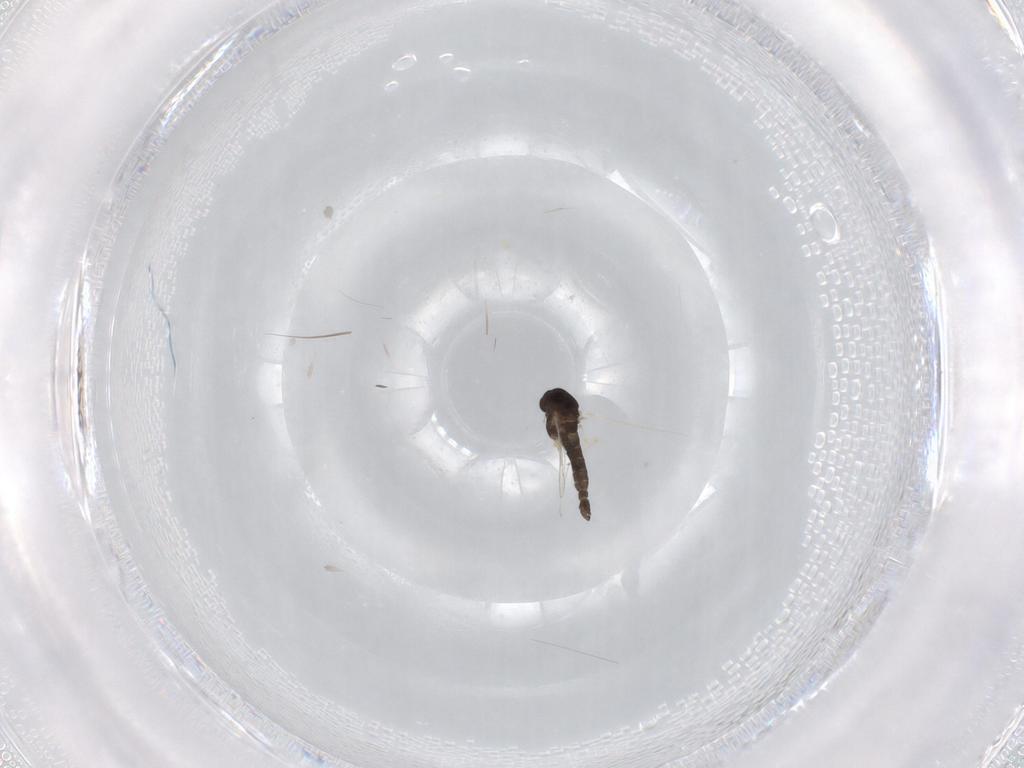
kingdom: Animalia
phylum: Arthropoda
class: Insecta
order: Diptera
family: Chironomidae
